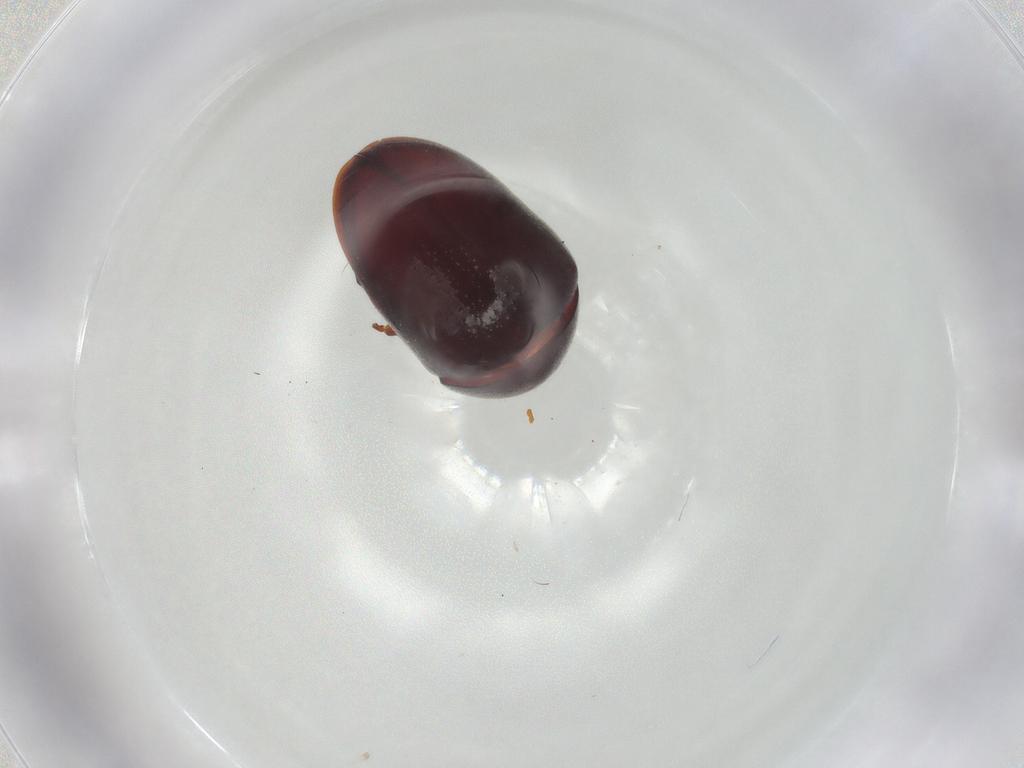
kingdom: Animalia
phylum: Arthropoda
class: Insecta
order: Coleoptera
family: Anobiidae
